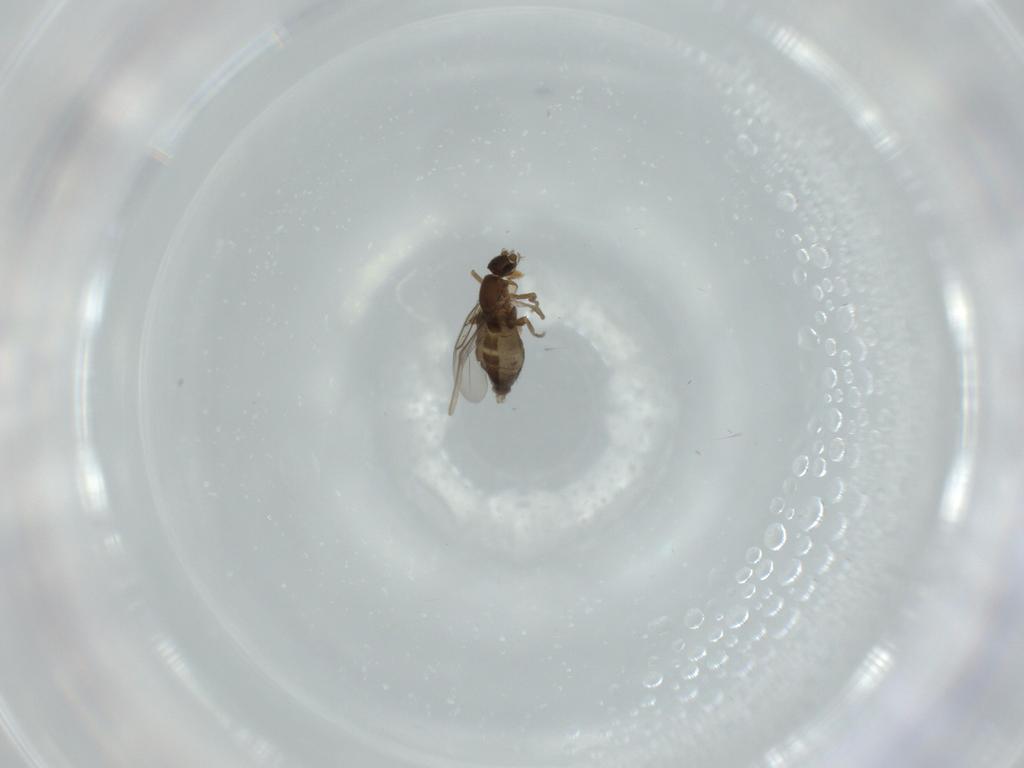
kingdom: Animalia
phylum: Arthropoda
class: Insecta
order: Diptera
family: Phoridae
